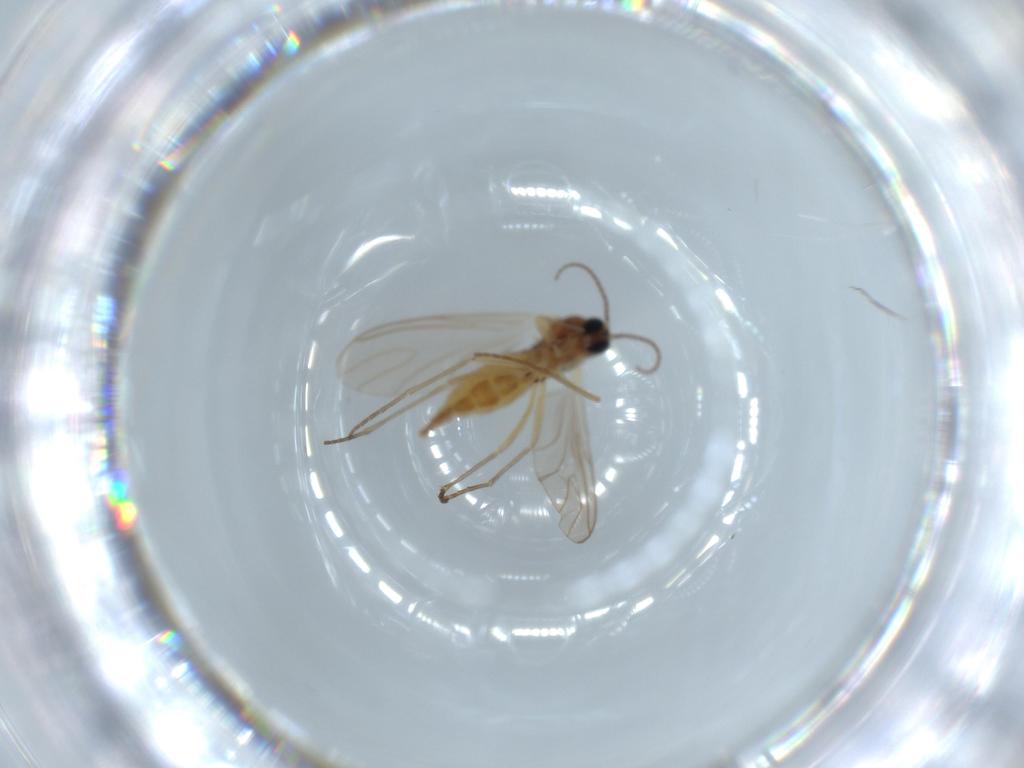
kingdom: Animalia
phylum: Arthropoda
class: Insecta
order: Diptera
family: Sciaridae
